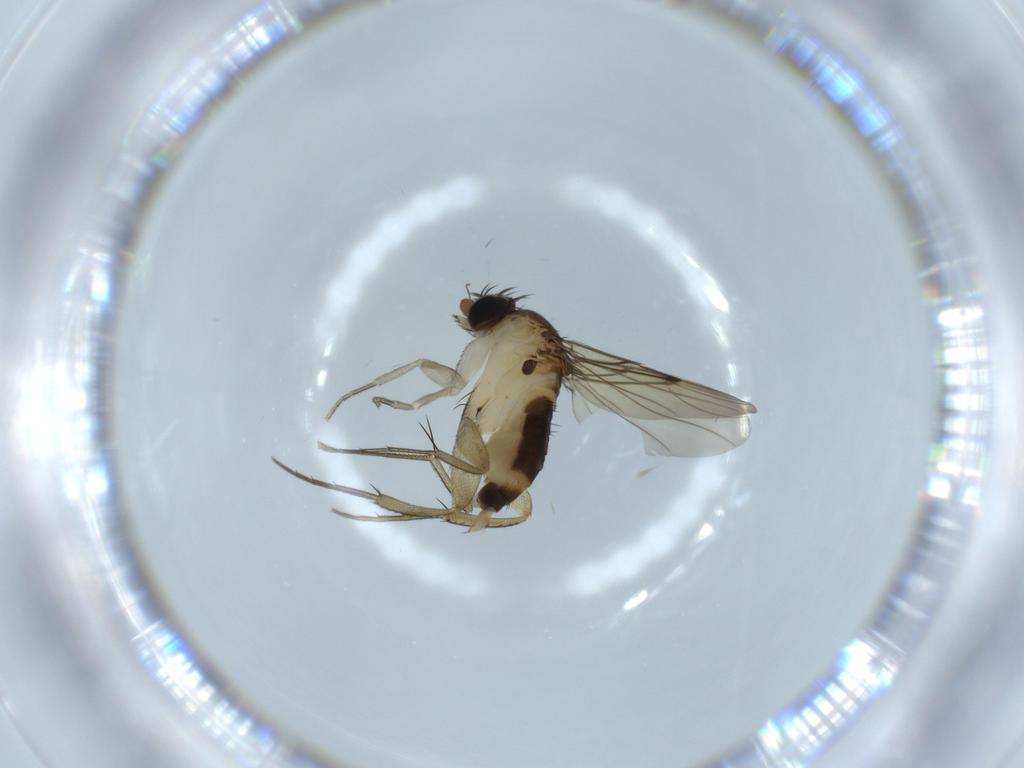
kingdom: Animalia
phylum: Arthropoda
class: Insecta
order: Diptera
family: Phoridae
